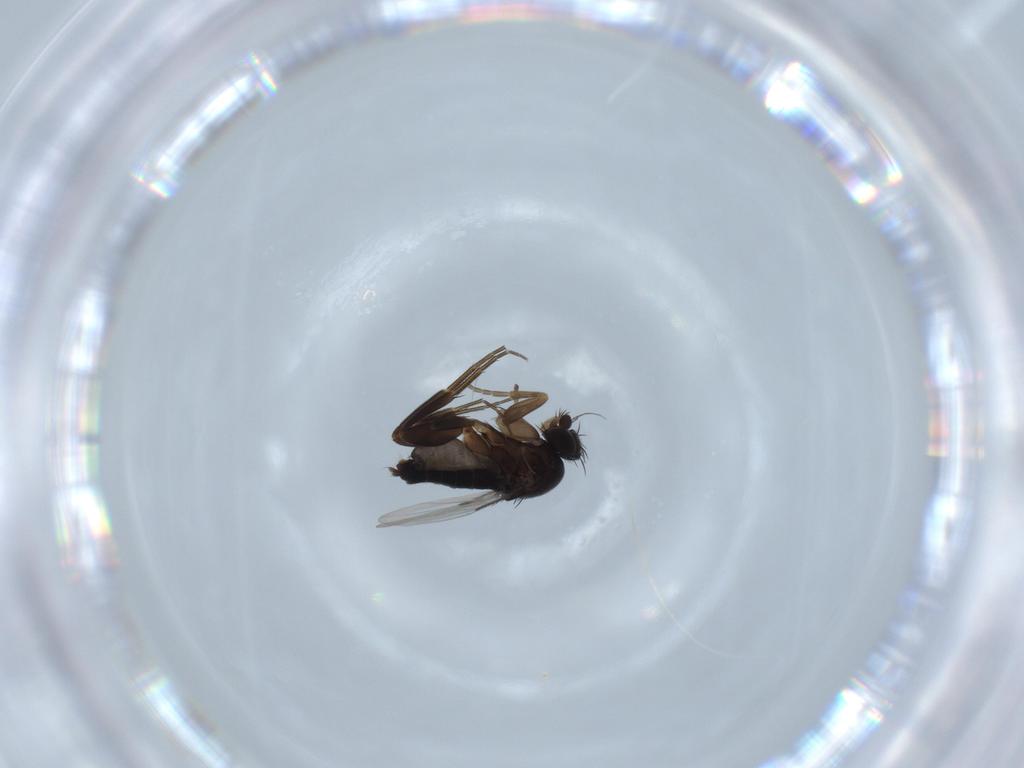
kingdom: Animalia
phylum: Arthropoda
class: Insecta
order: Diptera
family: Phoridae
